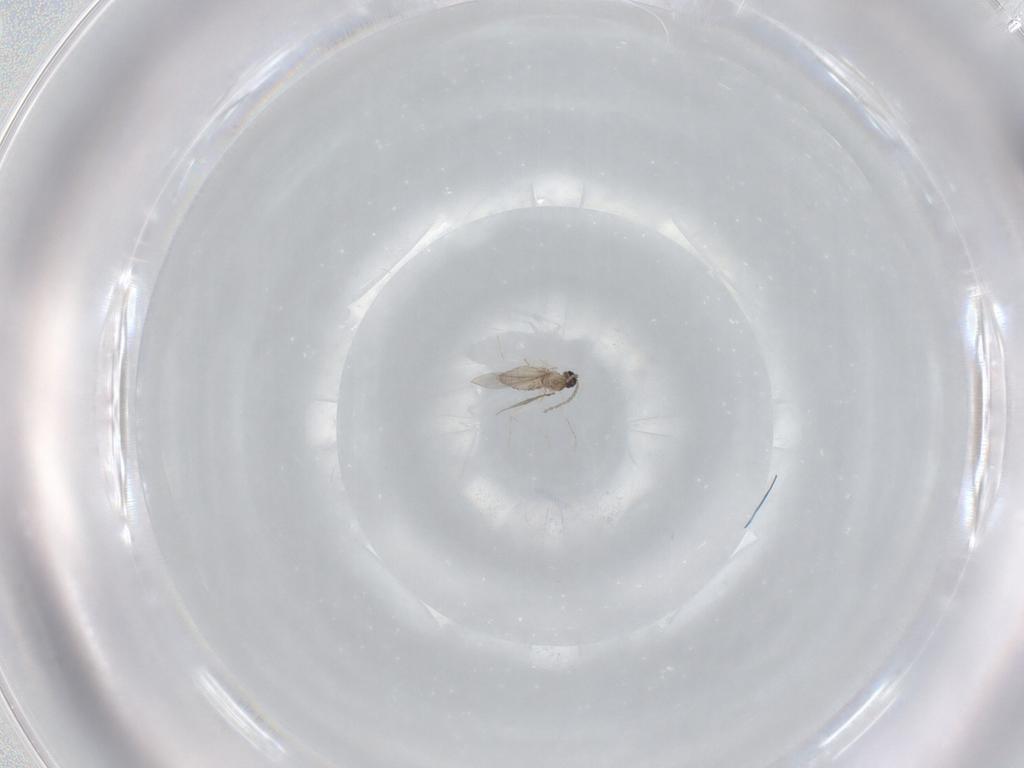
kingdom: Animalia
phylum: Arthropoda
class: Insecta
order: Diptera
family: Cecidomyiidae
